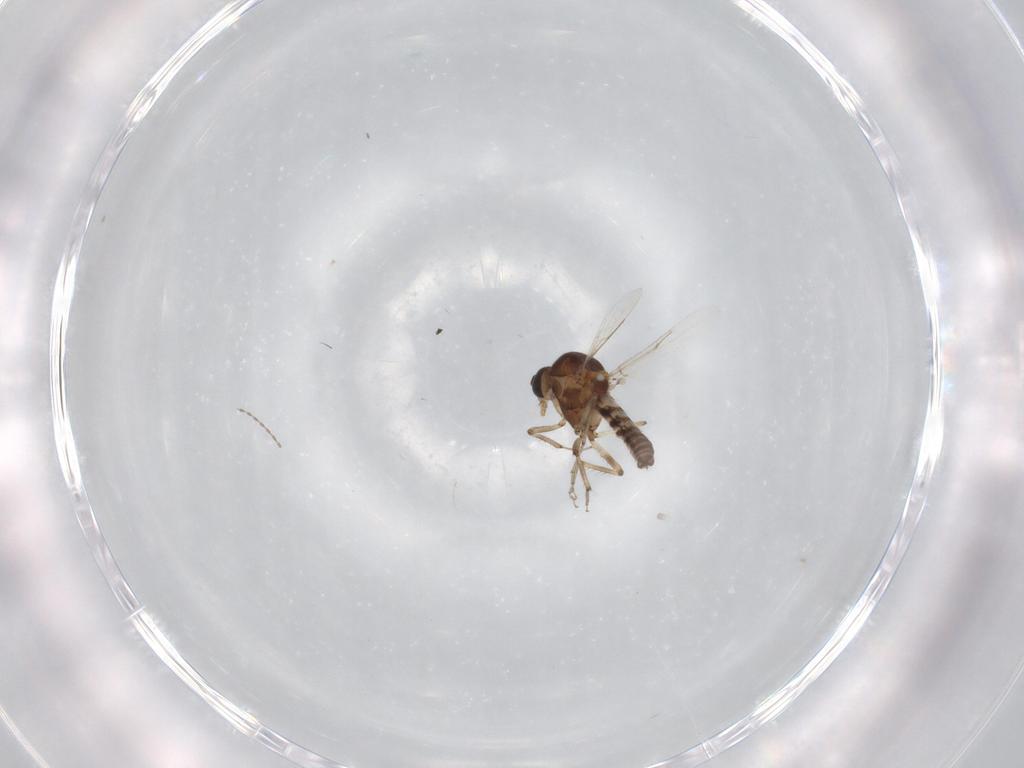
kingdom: Animalia
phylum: Arthropoda
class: Insecta
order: Diptera
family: Ceratopogonidae
